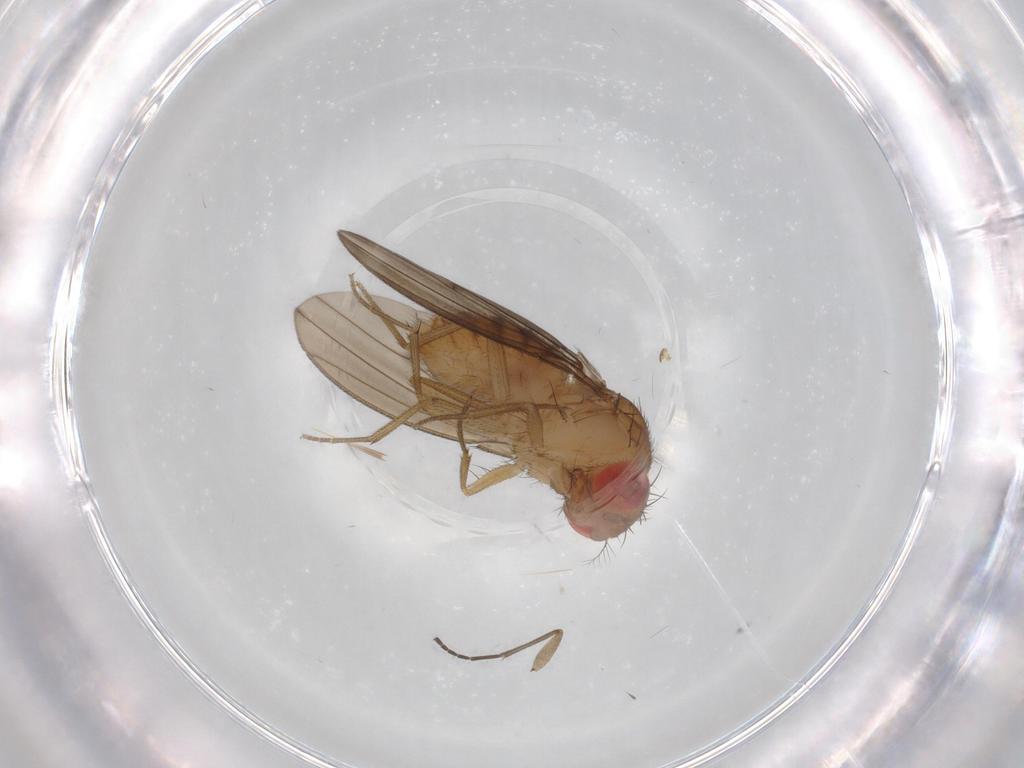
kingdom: Animalia
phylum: Arthropoda
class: Insecta
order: Diptera
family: Drosophilidae
